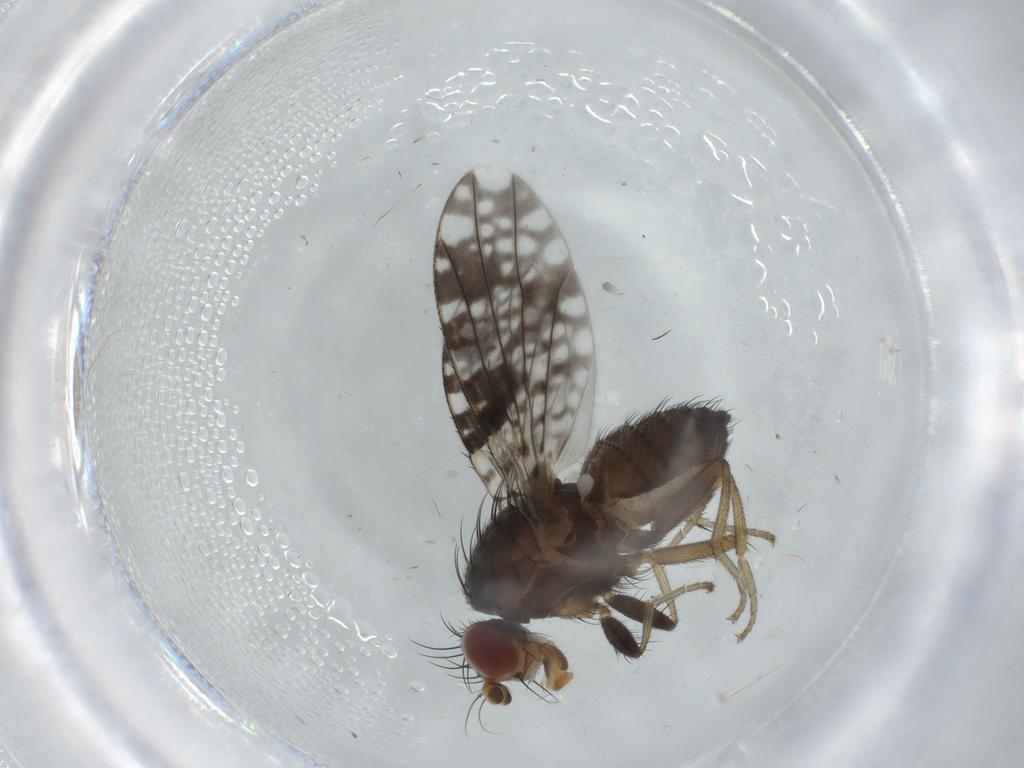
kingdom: Animalia
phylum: Arthropoda
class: Insecta
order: Diptera
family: Tephritidae
